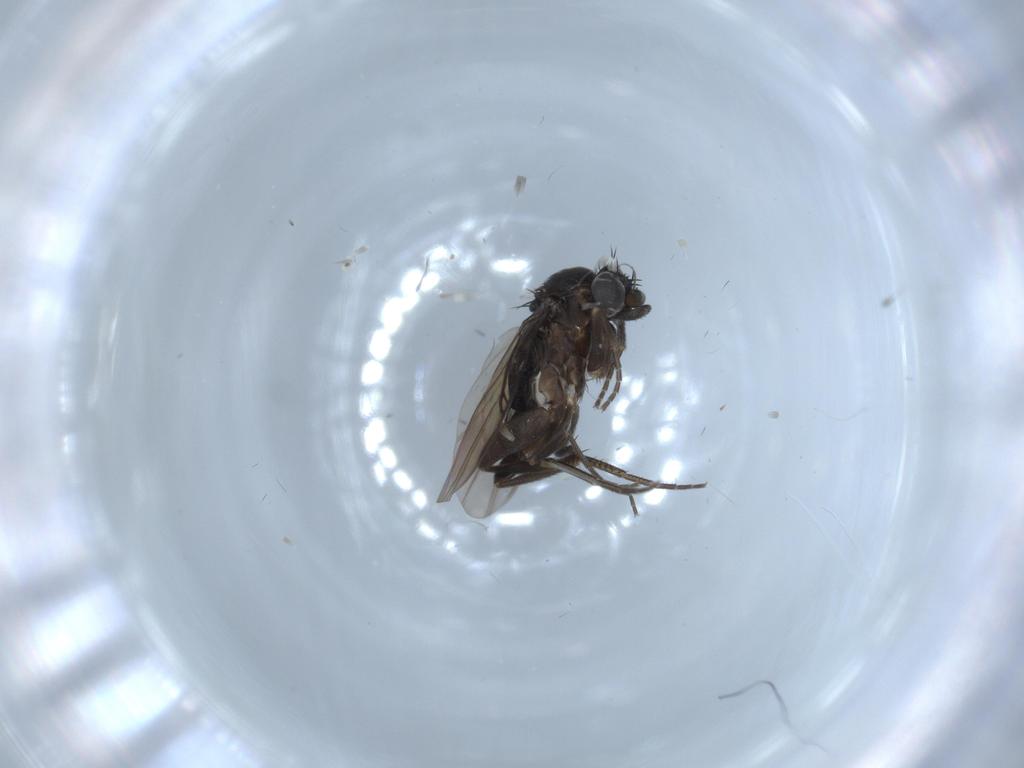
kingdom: Animalia
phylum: Arthropoda
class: Insecta
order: Diptera
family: Phoridae
